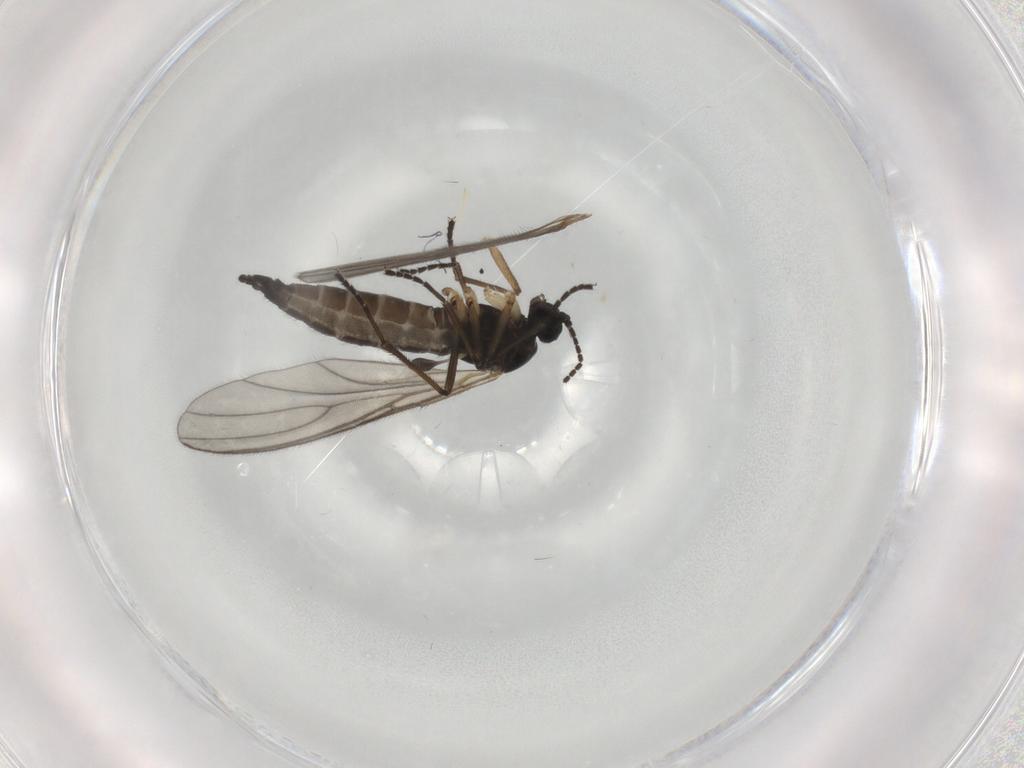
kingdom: Animalia
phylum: Arthropoda
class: Insecta
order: Diptera
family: Sciaridae
